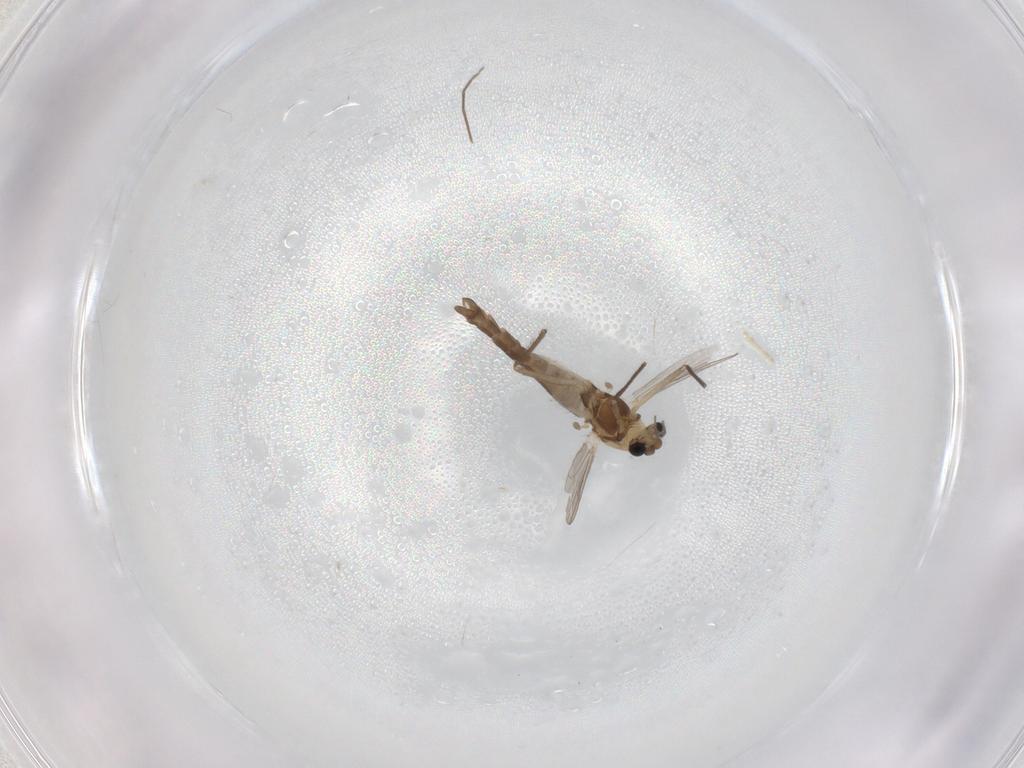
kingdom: Animalia
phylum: Arthropoda
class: Insecta
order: Diptera
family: Chironomidae
